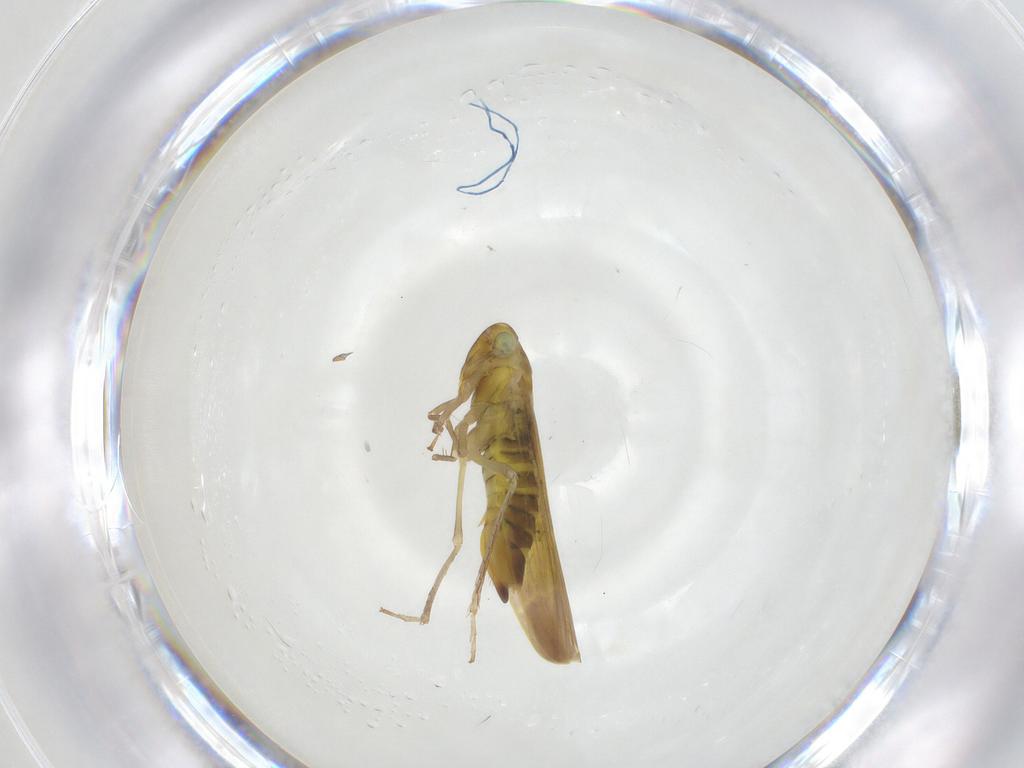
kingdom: Animalia
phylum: Arthropoda
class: Insecta
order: Hemiptera
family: Cicadellidae
